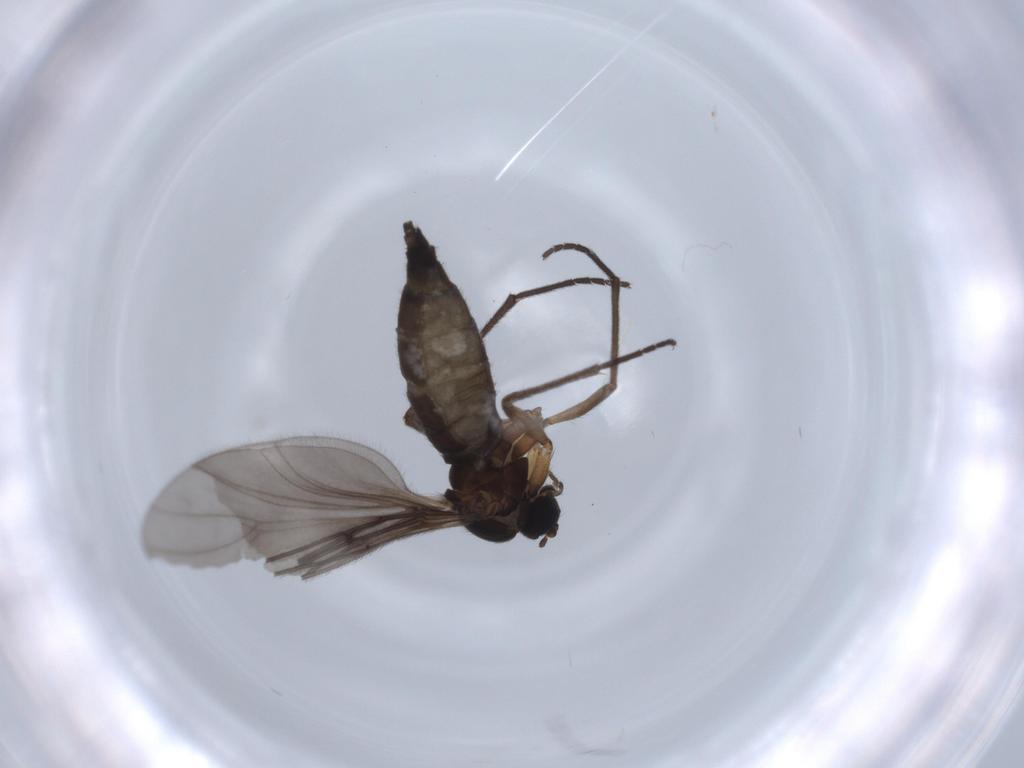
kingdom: Animalia
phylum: Arthropoda
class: Insecta
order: Diptera
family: Sciaridae
